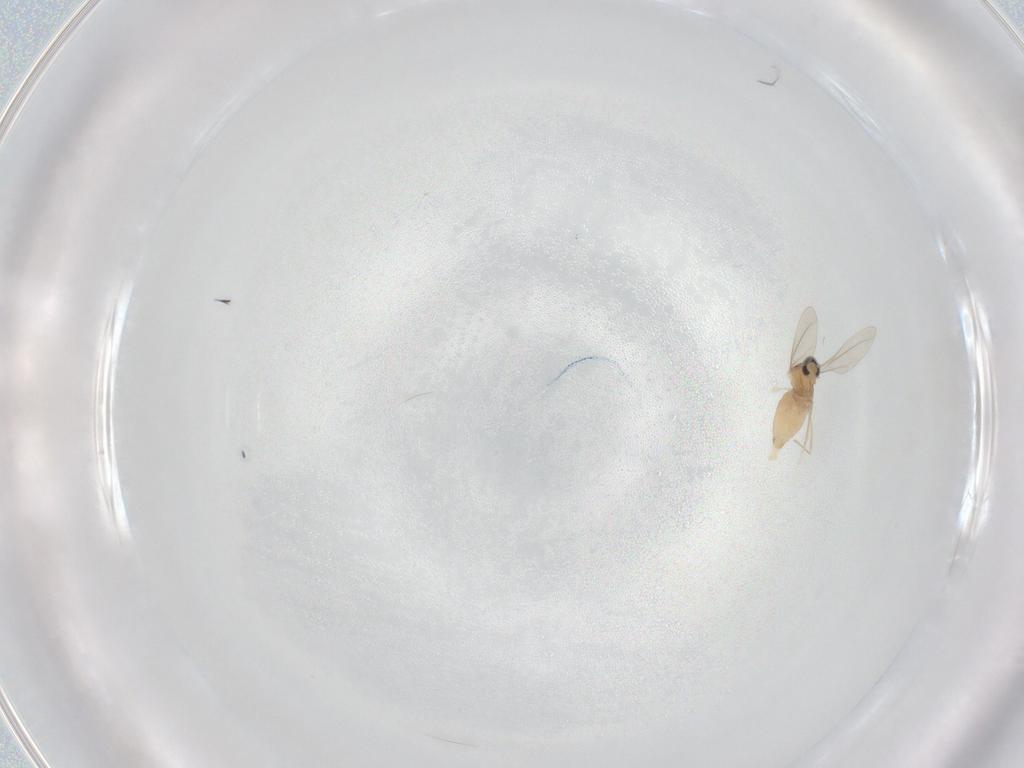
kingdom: Animalia
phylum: Arthropoda
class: Insecta
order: Diptera
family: Cecidomyiidae
